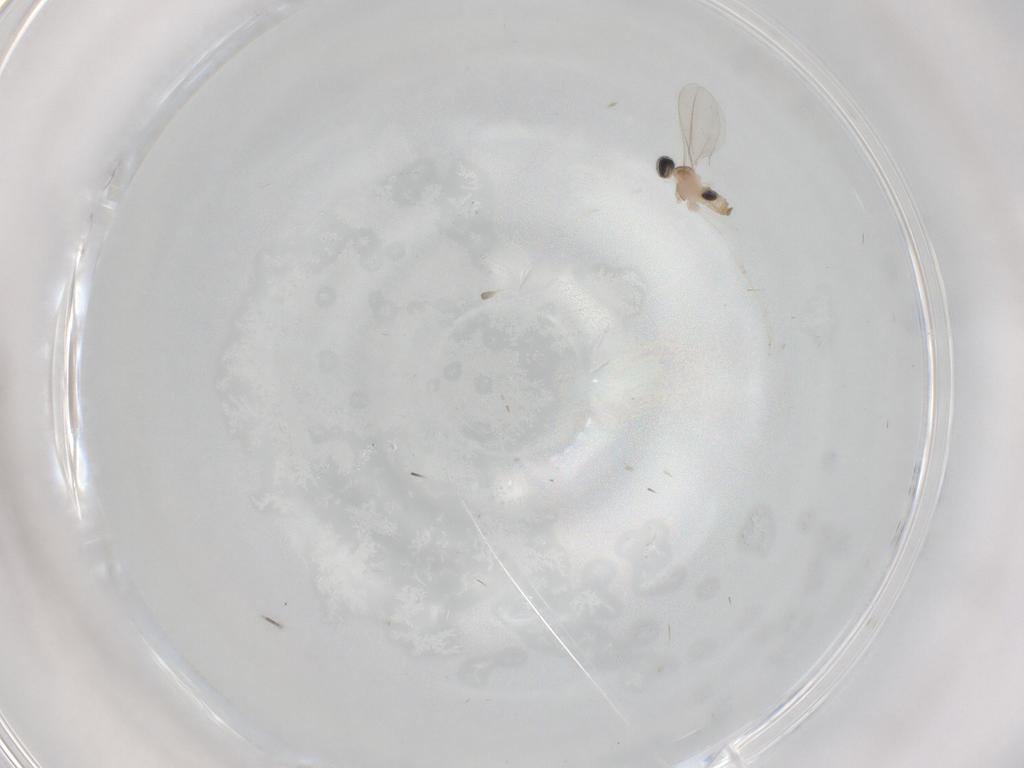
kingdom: Animalia
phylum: Arthropoda
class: Insecta
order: Diptera
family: Cecidomyiidae
